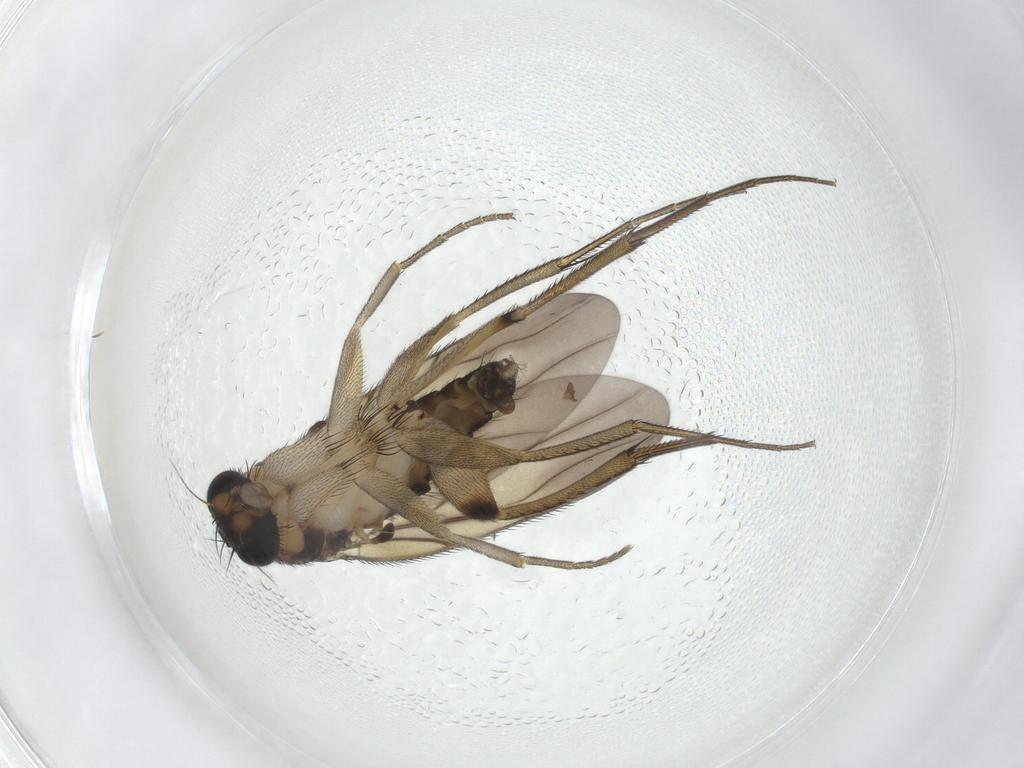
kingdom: Animalia
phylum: Arthropoda
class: Insecta
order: Diptera
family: Phoridae
